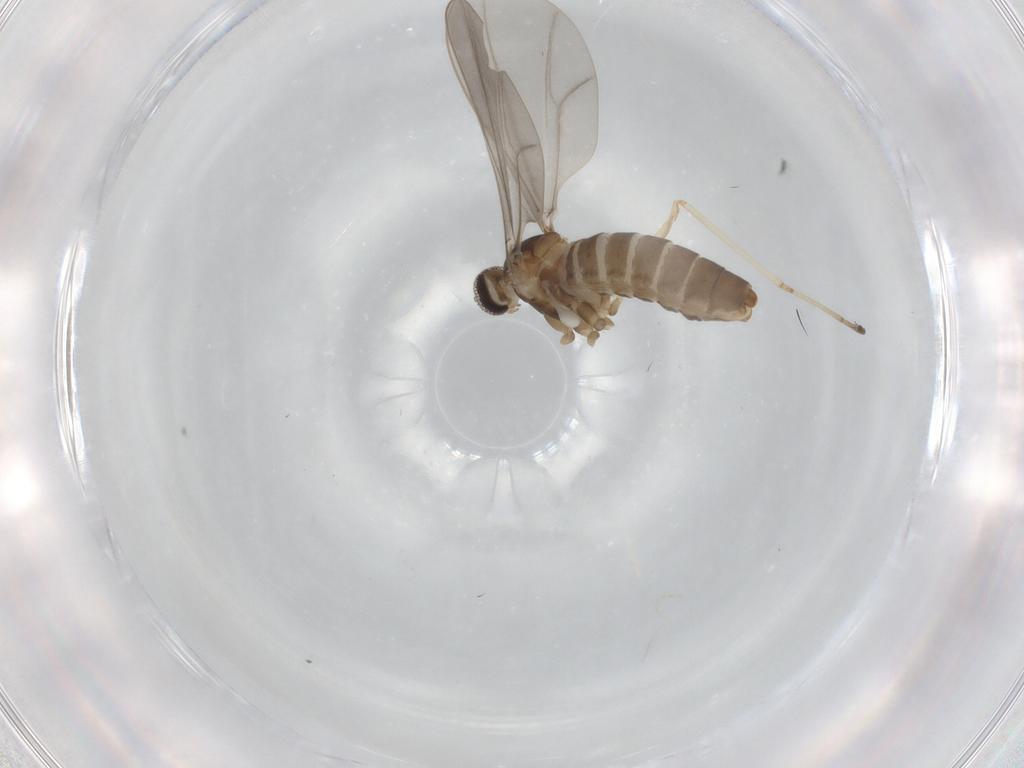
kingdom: Animalia
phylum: Arthropoda
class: Insecta
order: Diptera
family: Cecidomyiidae
